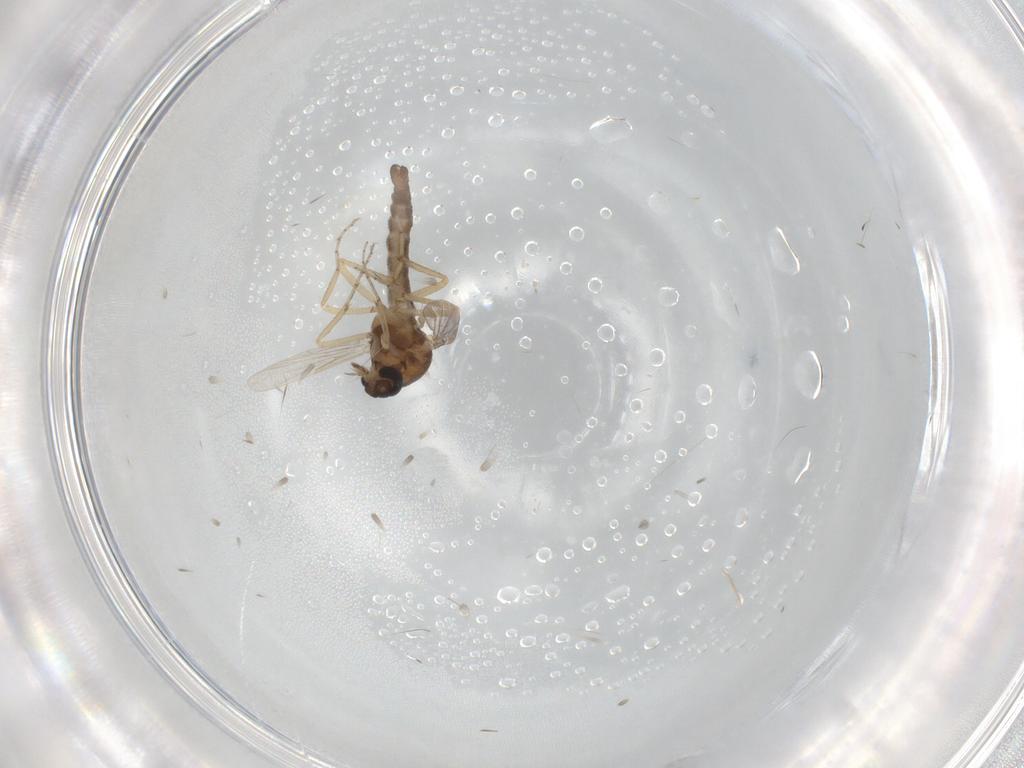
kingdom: Animalia
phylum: Arthropoda
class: Insecta
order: Diptera
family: Ceratopogonidae
